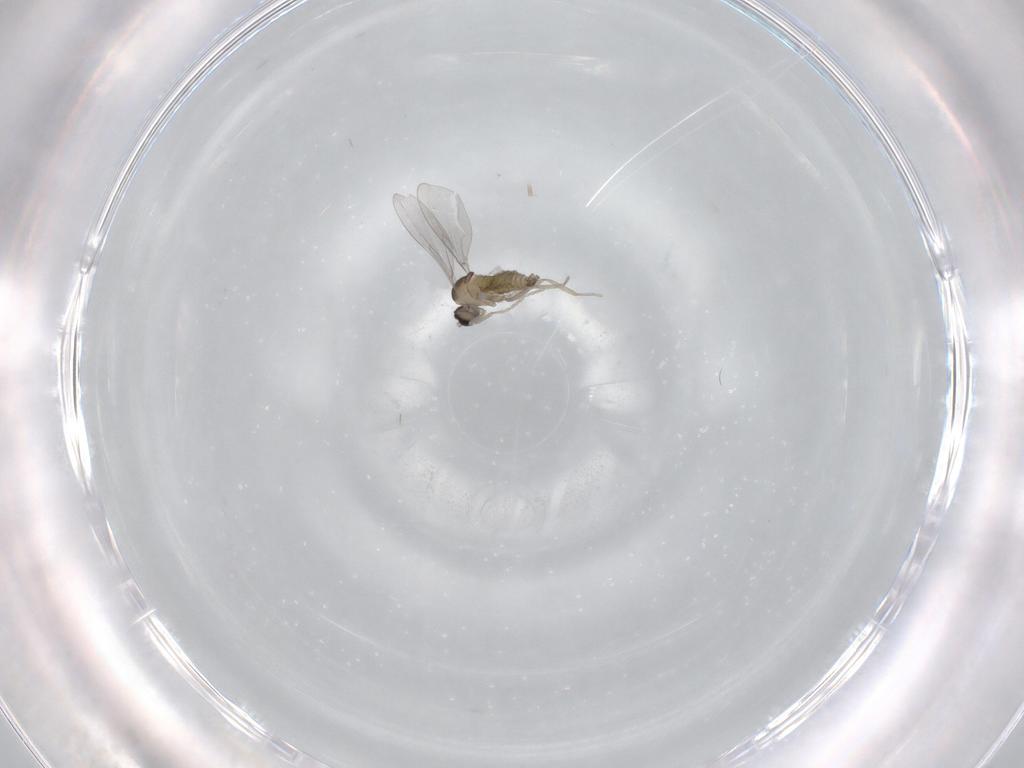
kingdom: Animalia
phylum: Arthropoda
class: Insecta
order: Diptera
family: Cecidomyiidae
